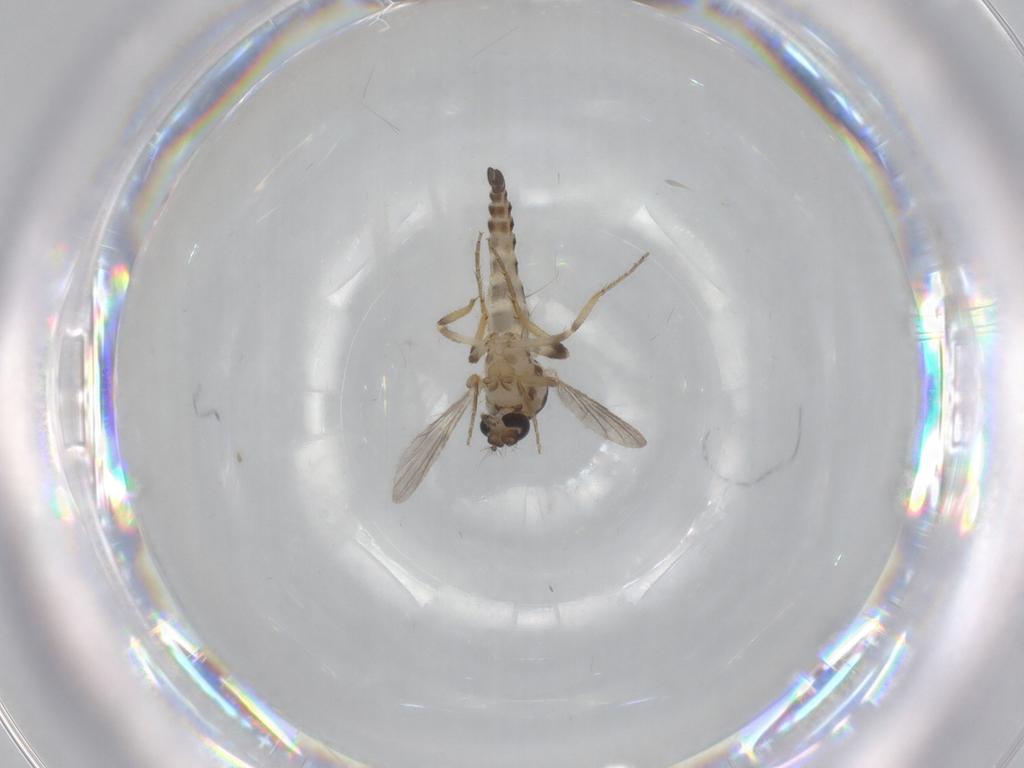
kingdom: Animalia
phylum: Arthropoda
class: Insecta
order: Diptera
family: Ceratopogonidae
